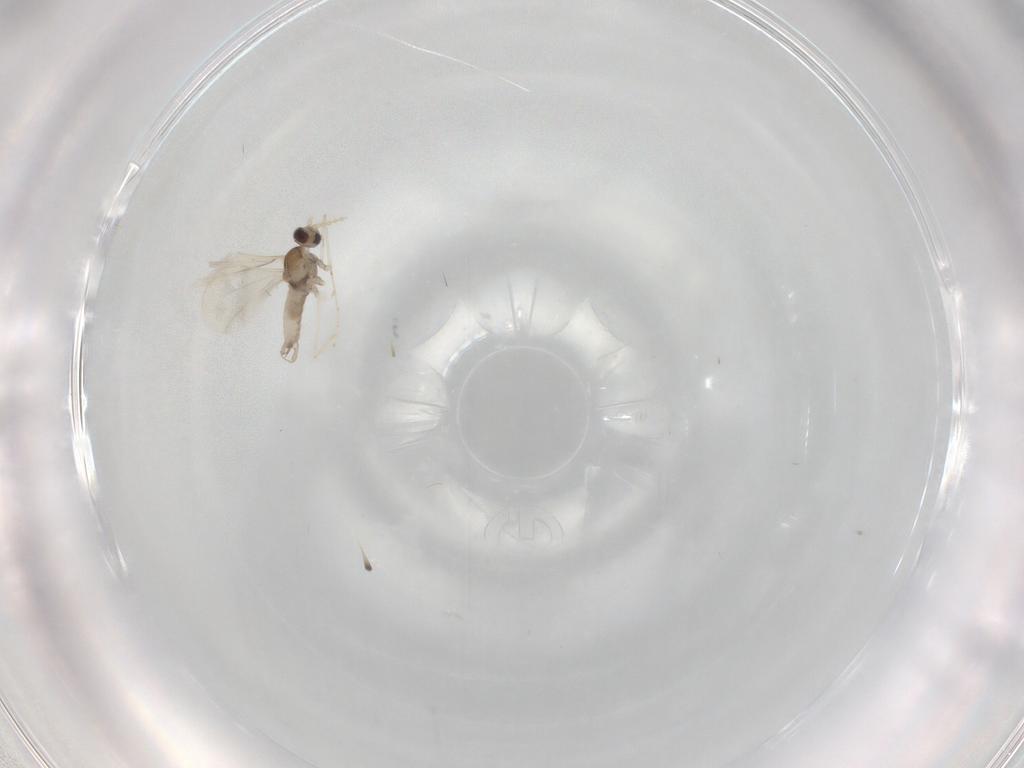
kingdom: Animalia
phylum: Arthropoda
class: Insecta
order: Diptera
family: Cecidomyiidae
